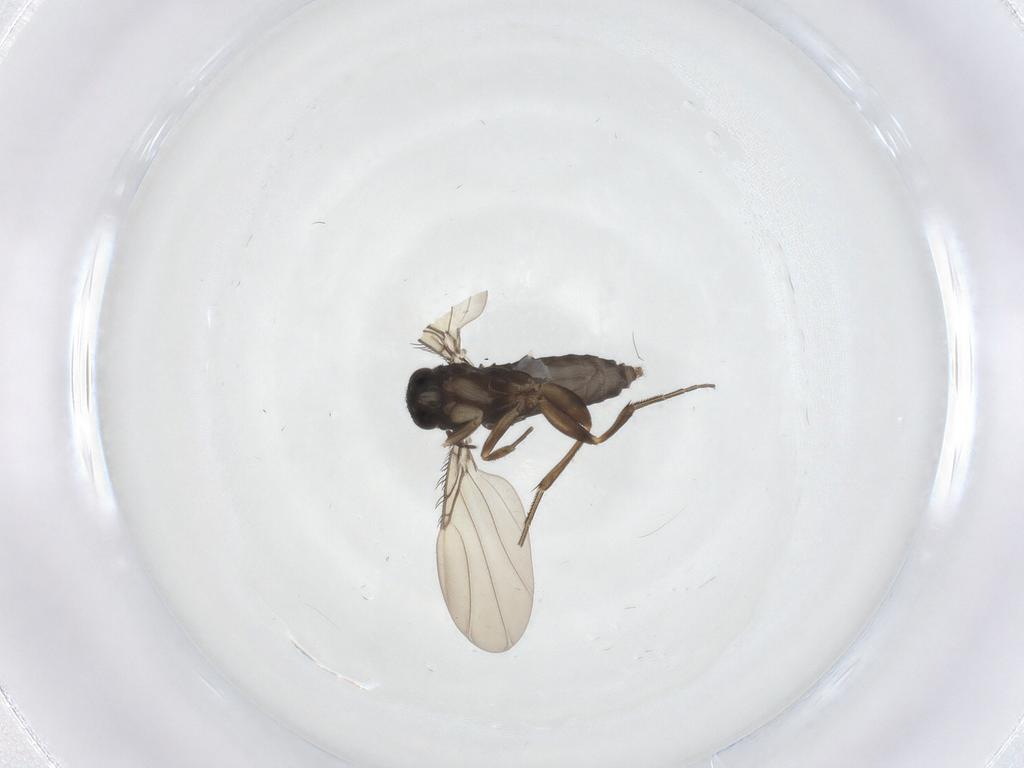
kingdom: Animalia
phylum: Arthropoda
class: Insecta
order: Diptera
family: Phoridae
